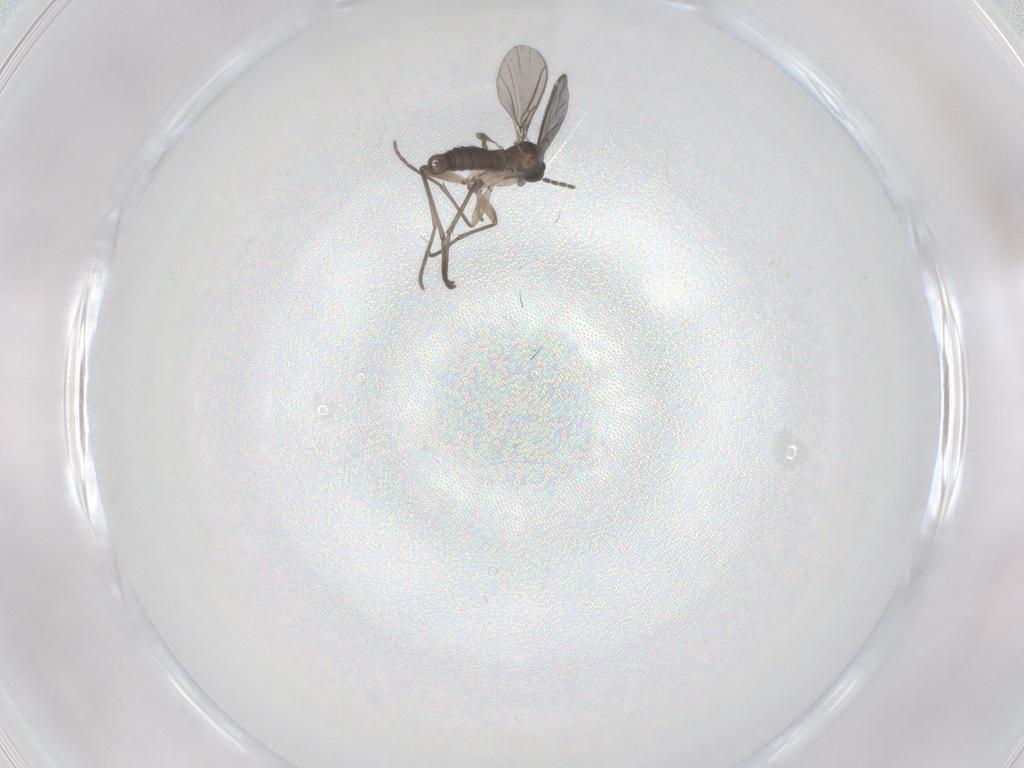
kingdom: Animalia
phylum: Arthropoda
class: Insecta
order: Diptera
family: Sciaridae
